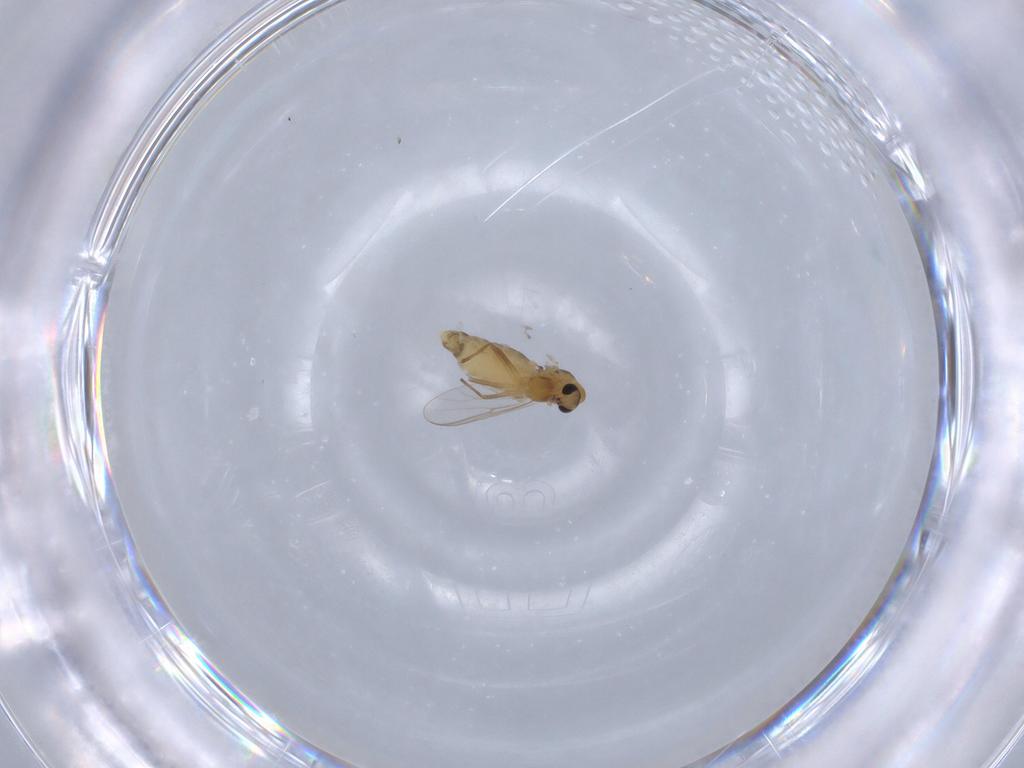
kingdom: Animalia
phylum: Arthropoda
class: Insecta
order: Diptera
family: Chironomidae
